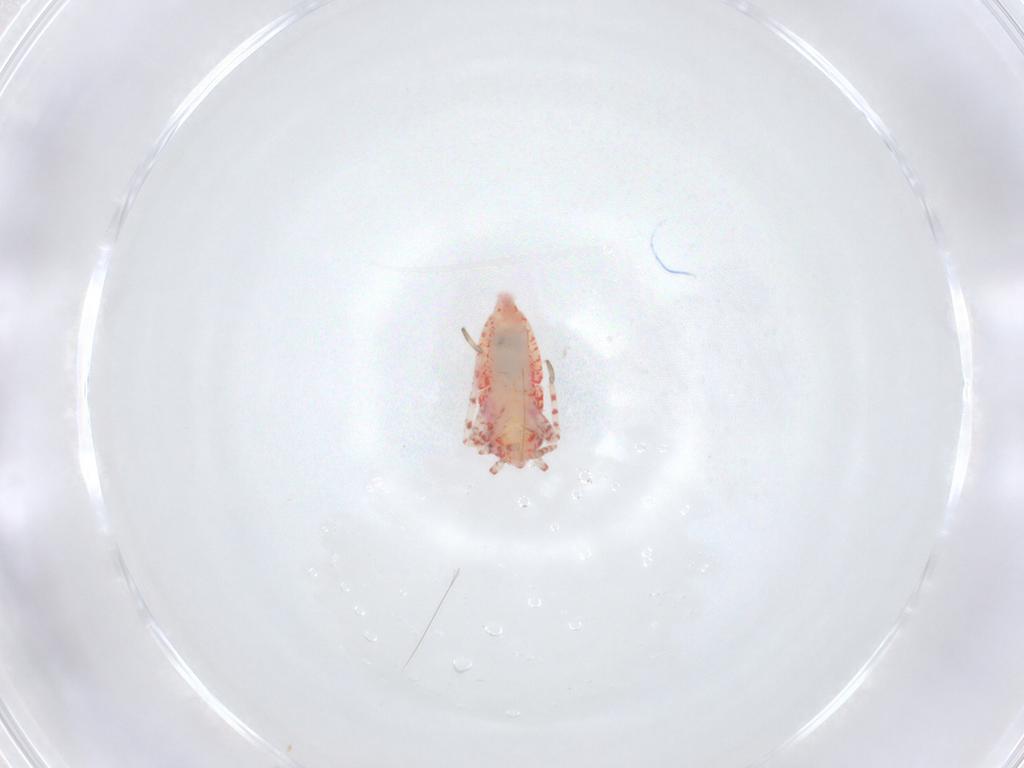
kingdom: Animalia
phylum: Arthropoda
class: Insecta
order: Hemiptera
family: Miridae
